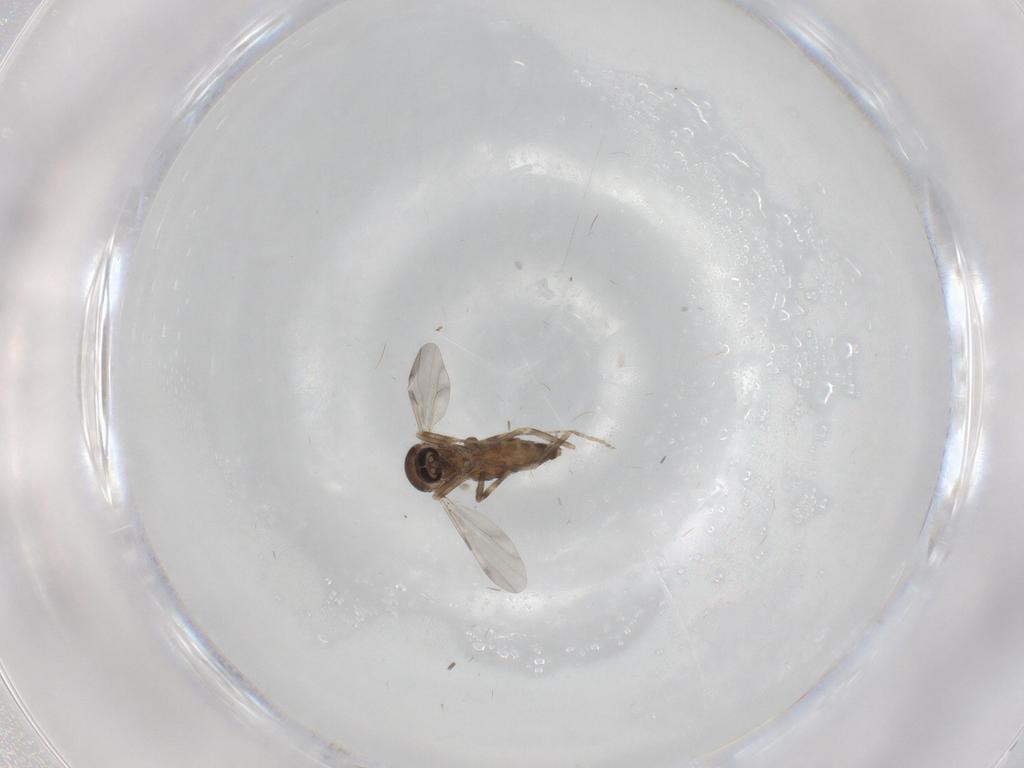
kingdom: Animalia
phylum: Arthropoda
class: Insecta
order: Diptera
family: Ceratopogonidae
